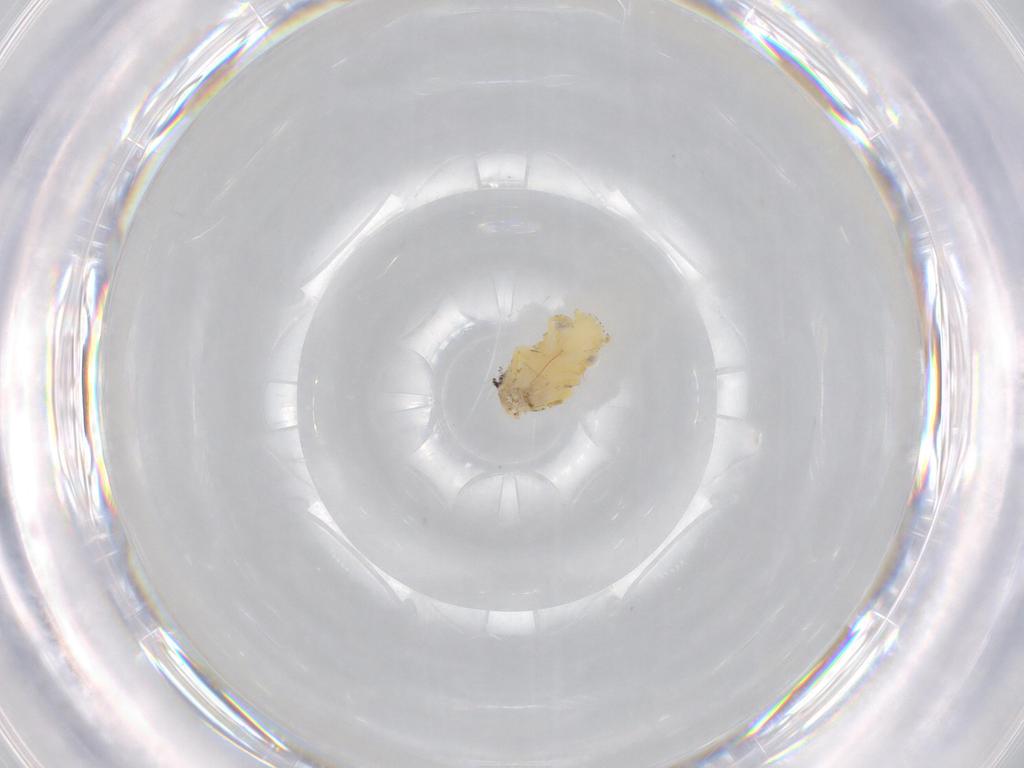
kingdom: Animalia
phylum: Arthropoda
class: Insecta
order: Hemiptera
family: Cicadellidae
